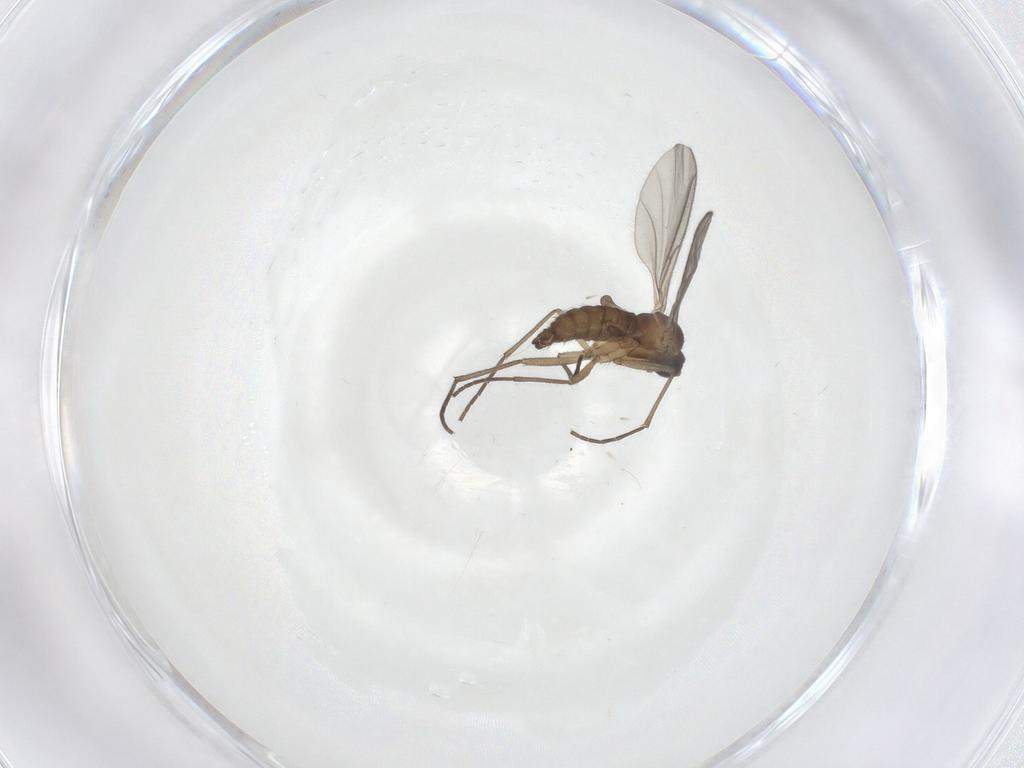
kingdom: Animalia
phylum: Arthropoda
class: Insecta
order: Diptera
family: Sciaridae
